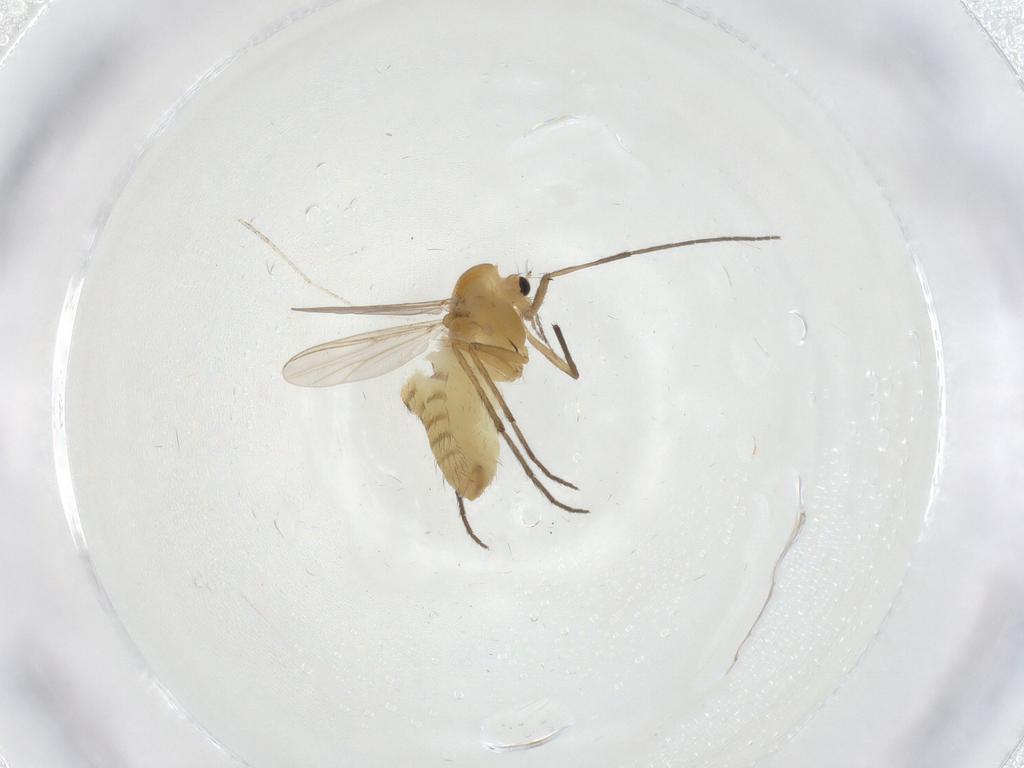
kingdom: Animalia
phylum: Arthropoda
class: Insecta
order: Diptera
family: Chironomidae
